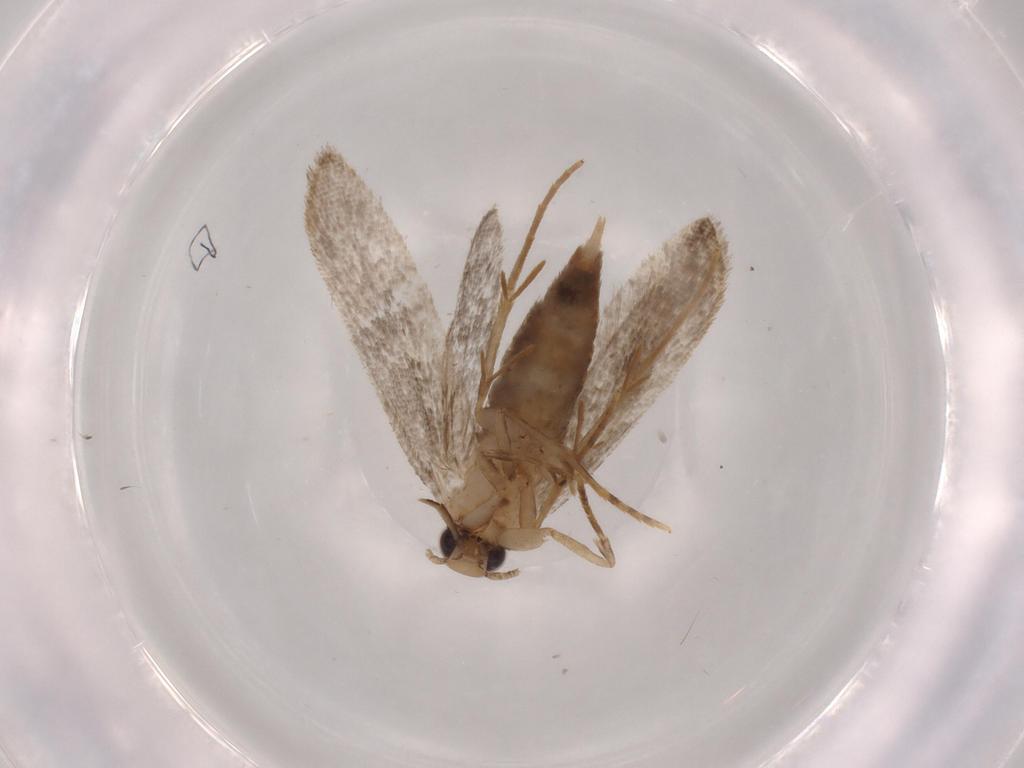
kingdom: Animalia
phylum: Arthropoda
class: Insecta
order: Lepidoptera
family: Tineidae
